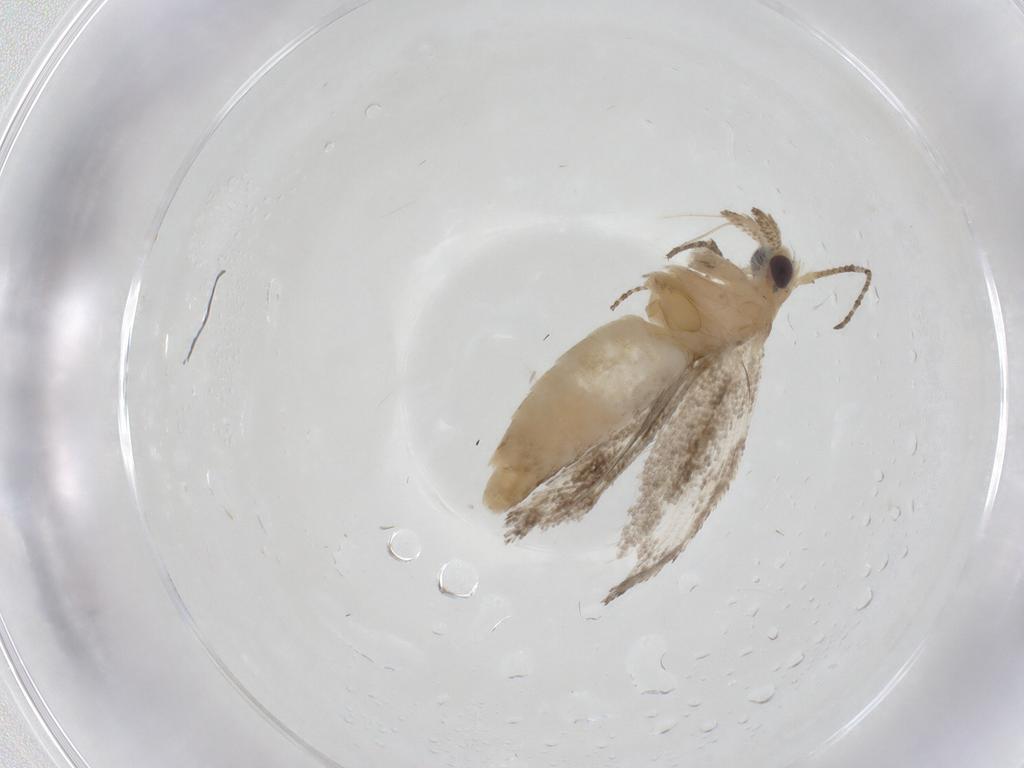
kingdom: Animalia
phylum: Arthropoda
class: Insecta
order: Lepidoptera
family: Plutellidae
